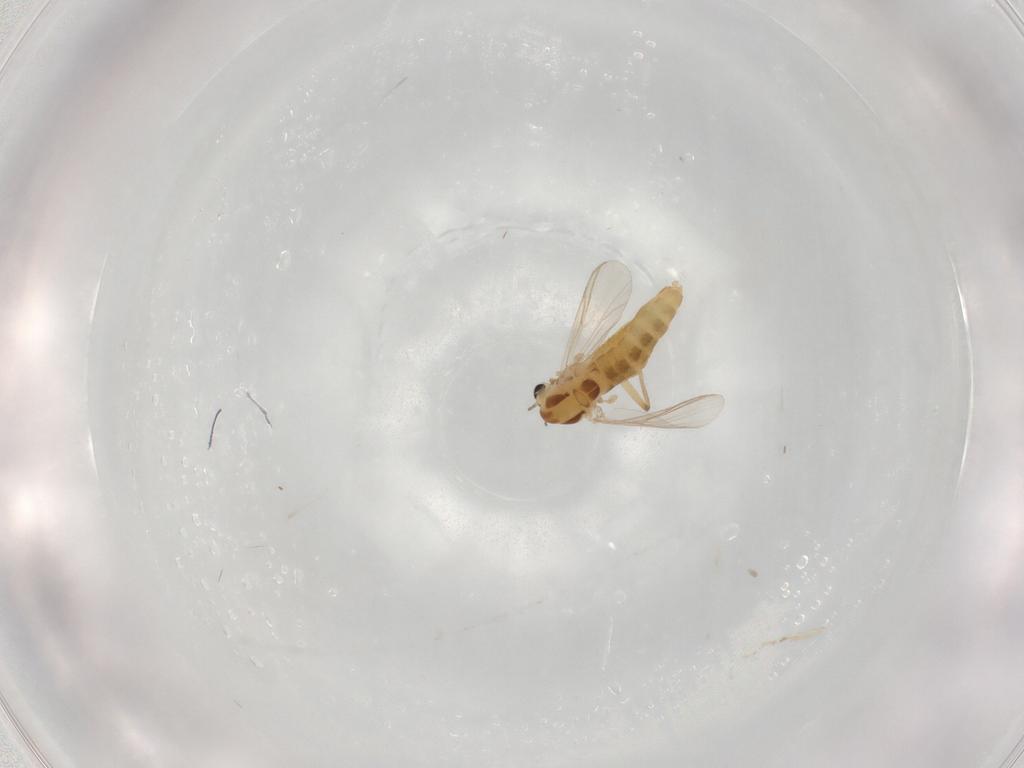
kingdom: Animalia
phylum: Arthropoda
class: Insecta
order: Diptera
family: Chironomidae
